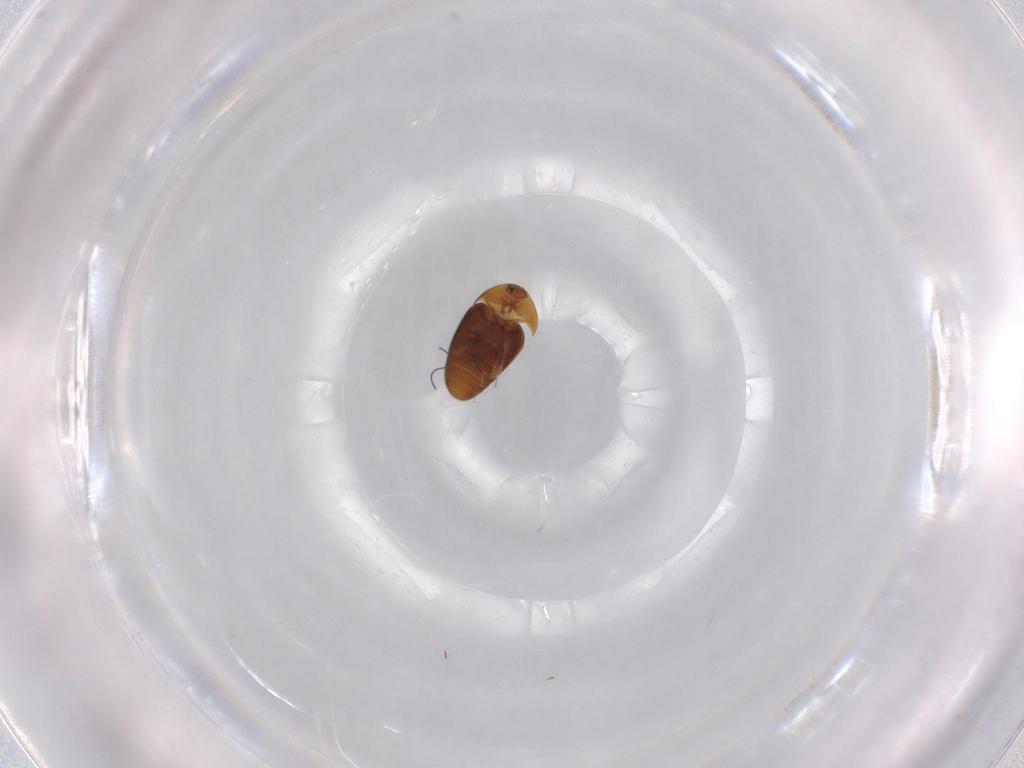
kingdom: Animalia
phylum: Arthropoda
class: Insecta
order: Coleoptera
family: Corylophidae
